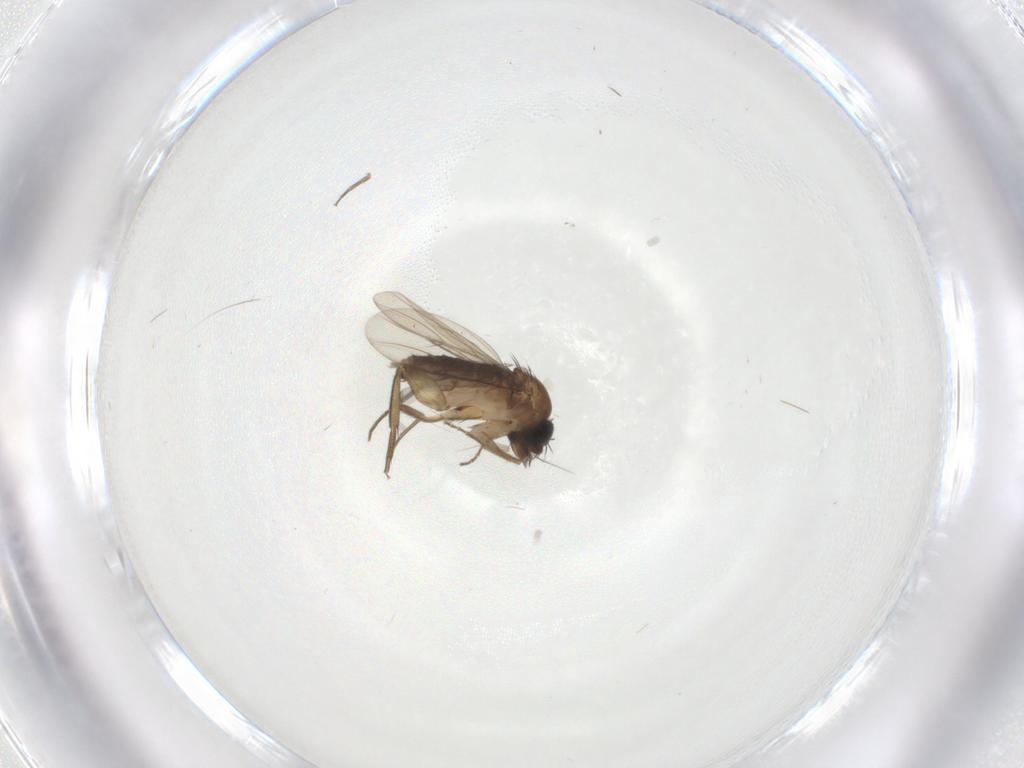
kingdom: Animalia
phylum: Arthropoda
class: Insecta
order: Diptera
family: Phoridae
